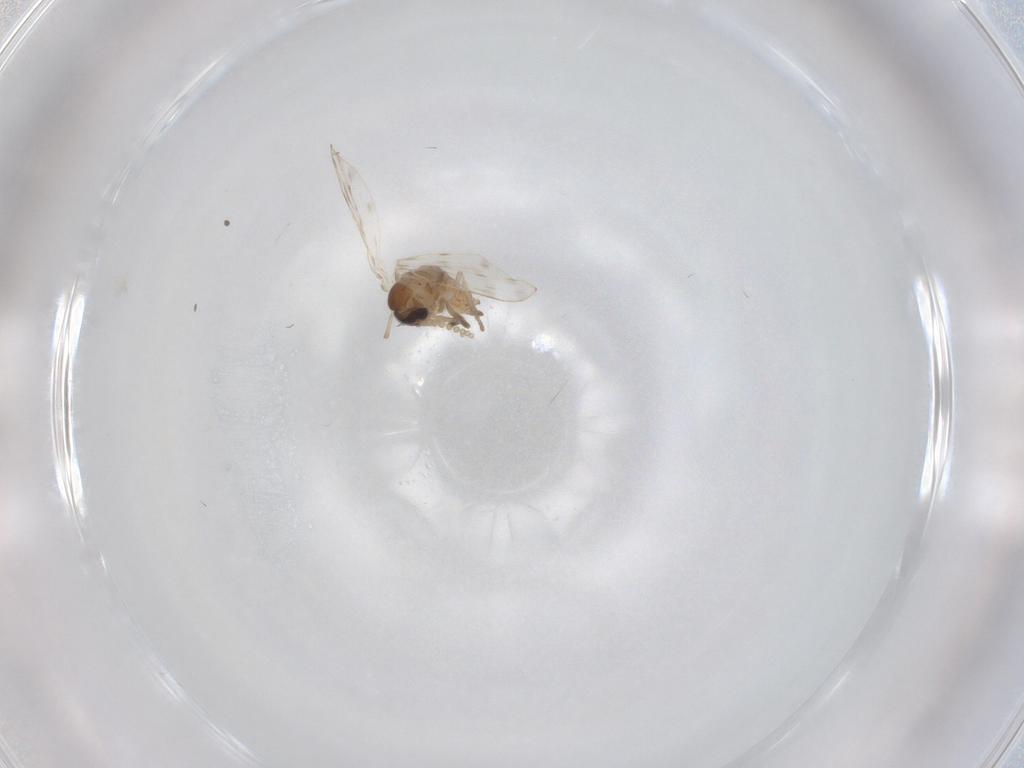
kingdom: Animalia
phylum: Arthropoda
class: Insecta
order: Diptera
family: Psychodidae
